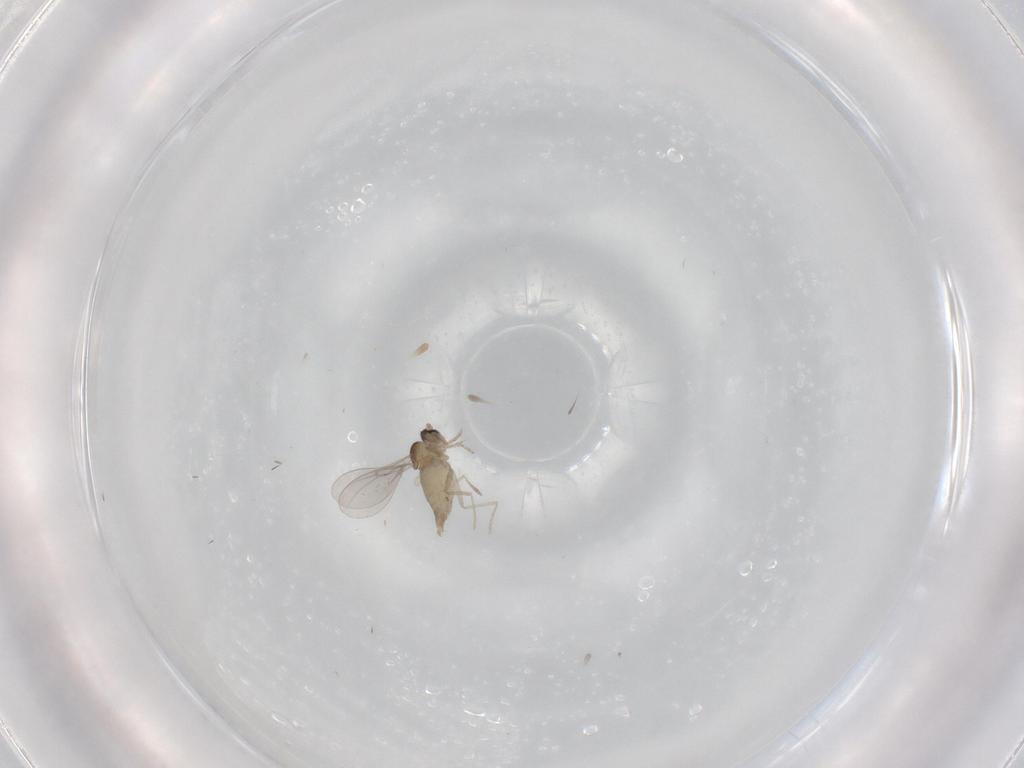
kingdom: Animalia
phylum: Arthropoda
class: Insecta
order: Diptera
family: Cecidomyiidae
